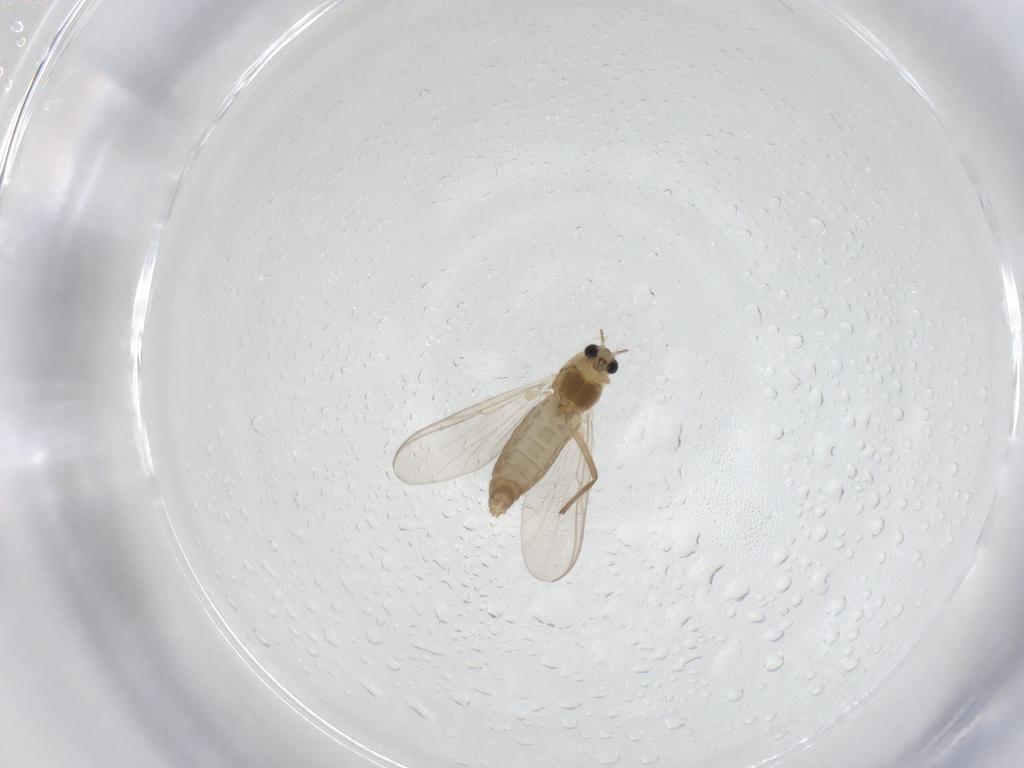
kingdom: Animalia
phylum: Arthropoda
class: Insecta
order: Diptera
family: Chironomidae
